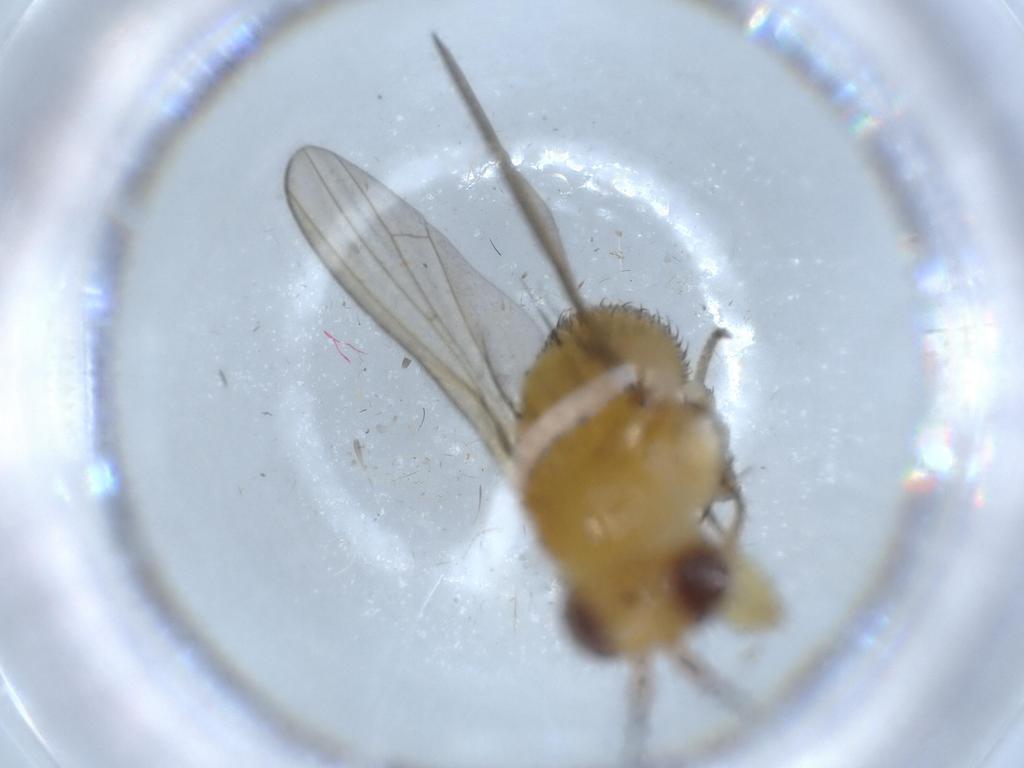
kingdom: Animalia
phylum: Arthropoda
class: Insecta
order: Diptera
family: Lauxaniidae
